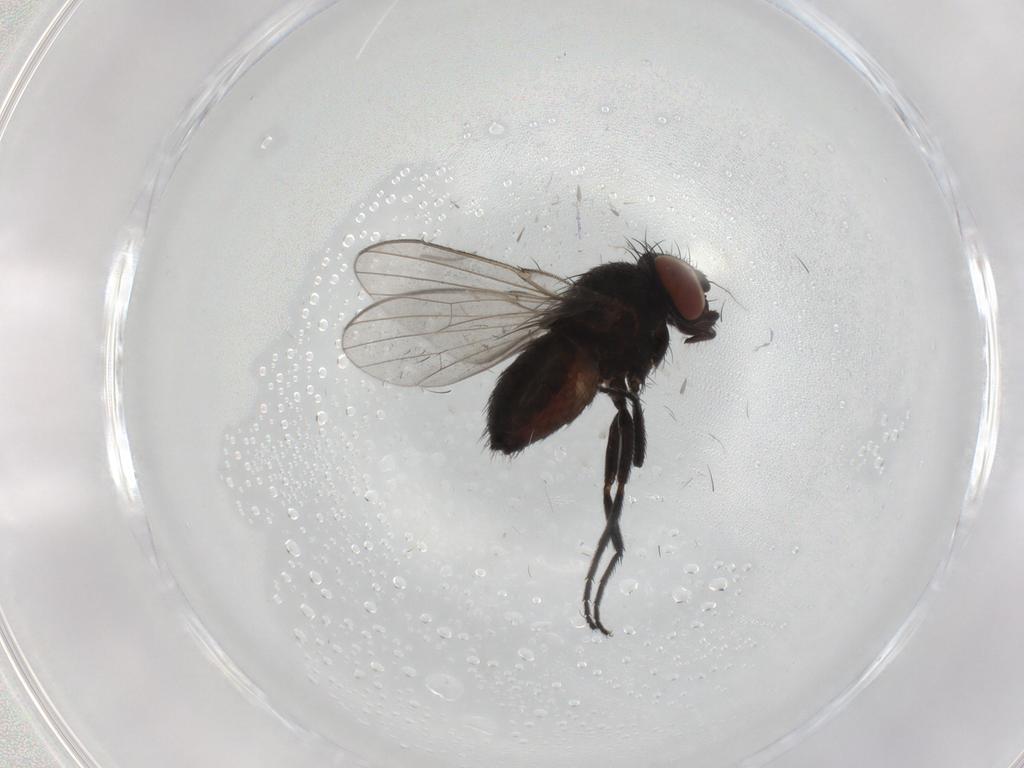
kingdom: Animalia
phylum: Arthropoda
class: Insecta
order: Diptera
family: Milichiidae
